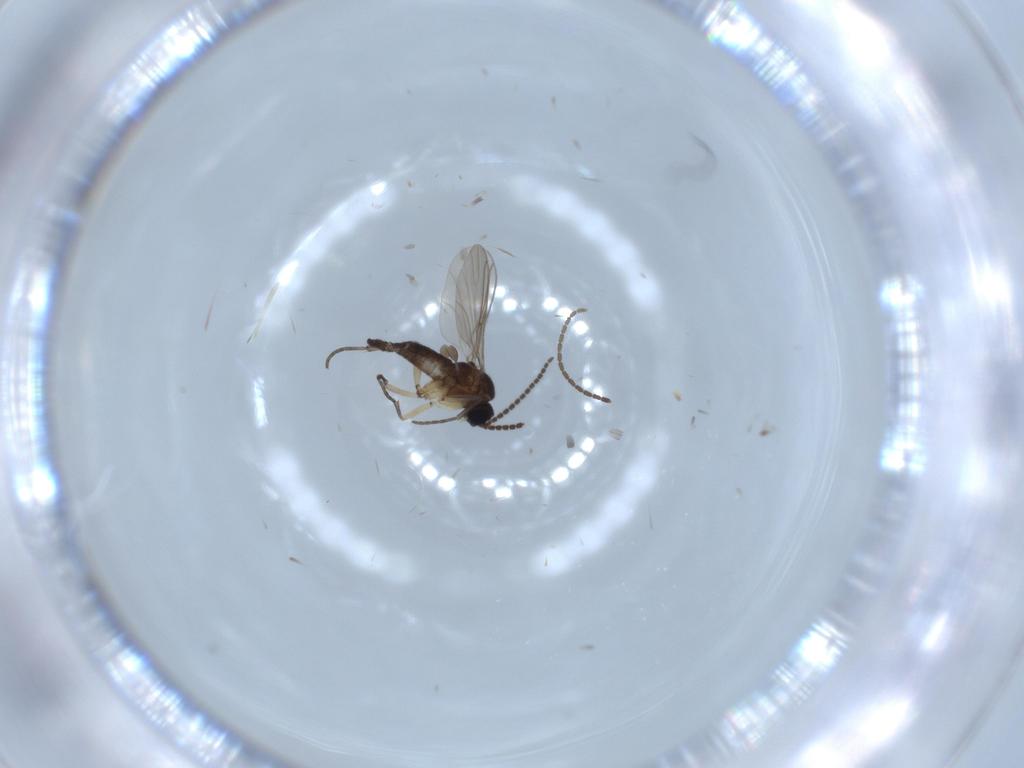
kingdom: Animalia
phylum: Arthropoda
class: Insecta
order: Diptera
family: Sciaridae
